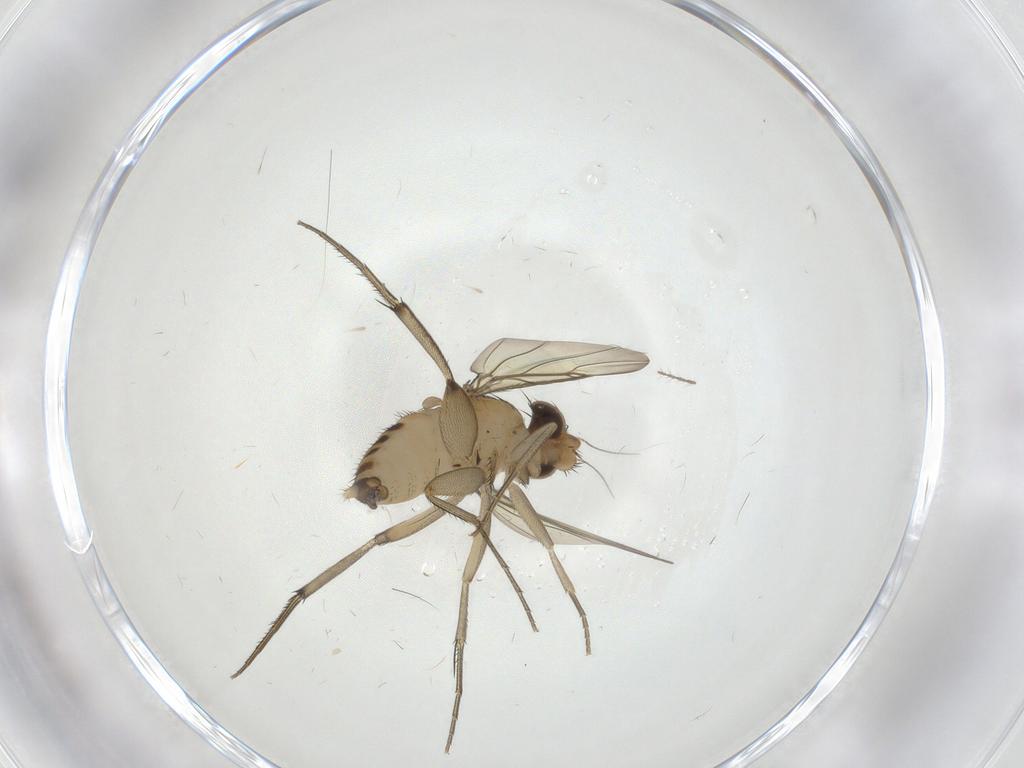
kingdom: Animalia
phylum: Arthropoda
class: Insecta
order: Diptera
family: Phoridae
